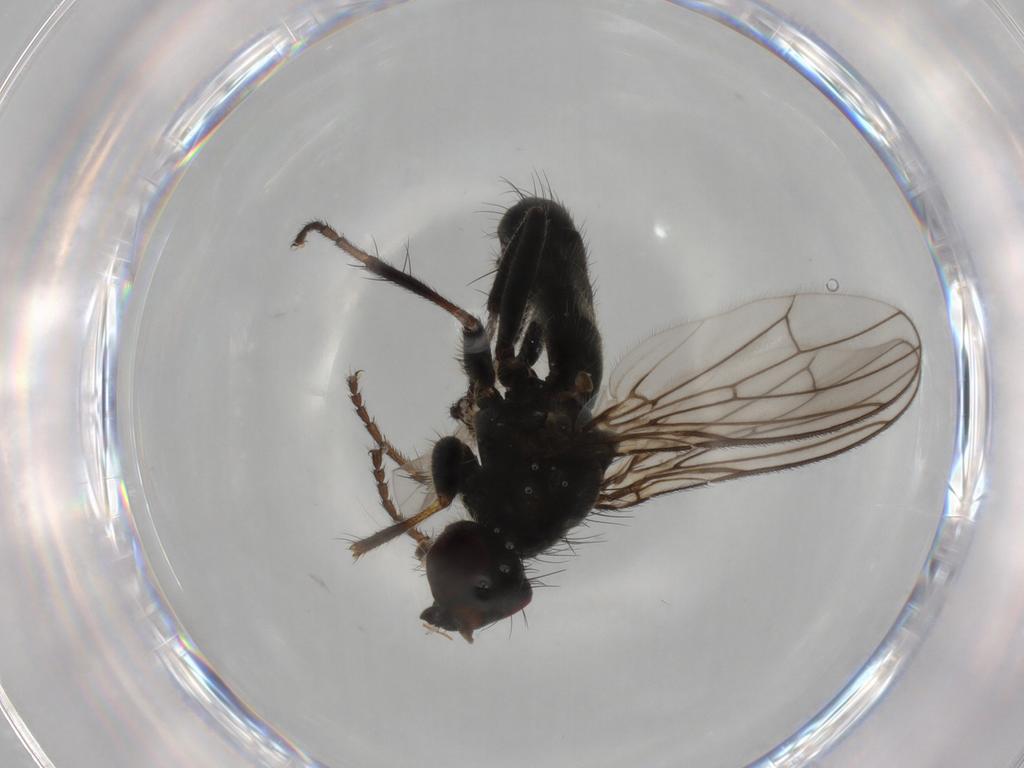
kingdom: Animalia
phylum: Arthropoda
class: Insecta
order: Diptera
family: Scathophagidae
